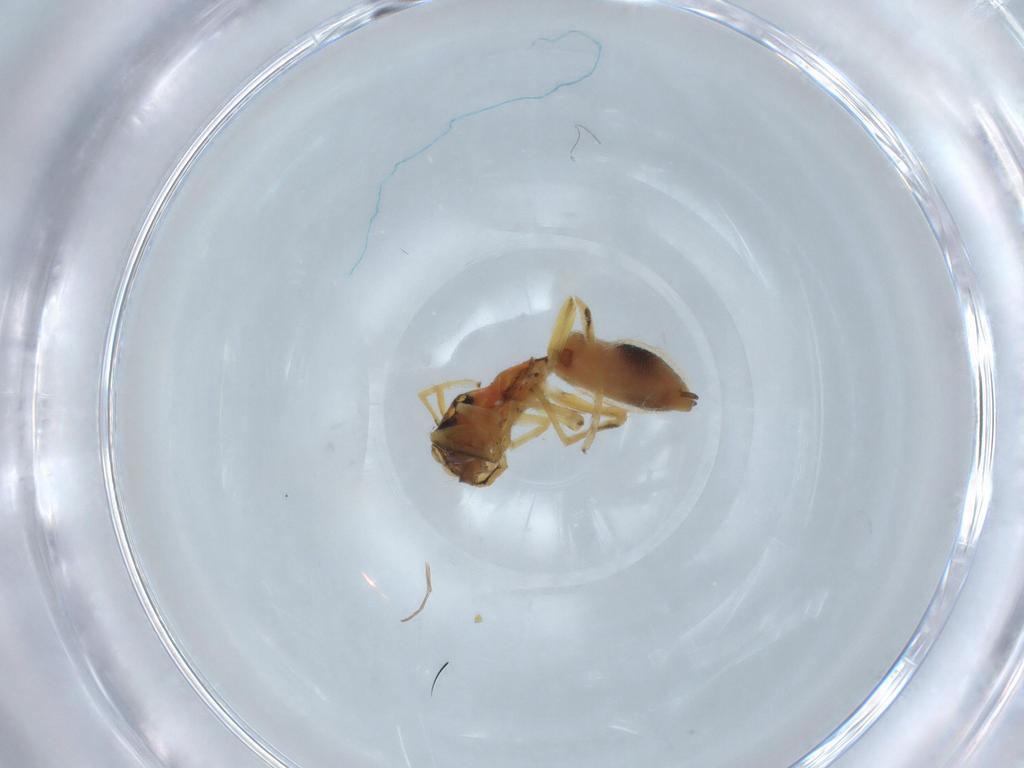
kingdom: Animalia
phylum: Arthropoda
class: Arachnida
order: Araneae
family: Salticidae
